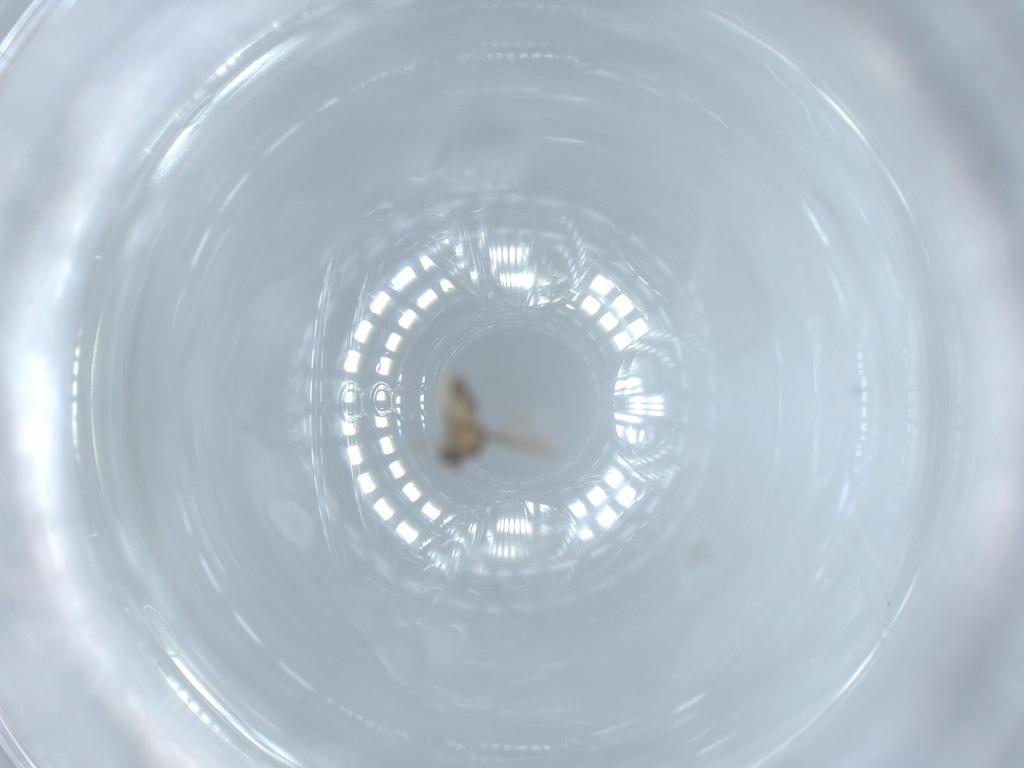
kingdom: Animalia
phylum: Arthropoda
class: Insecta
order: Diptera
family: Cecidomyiidae
